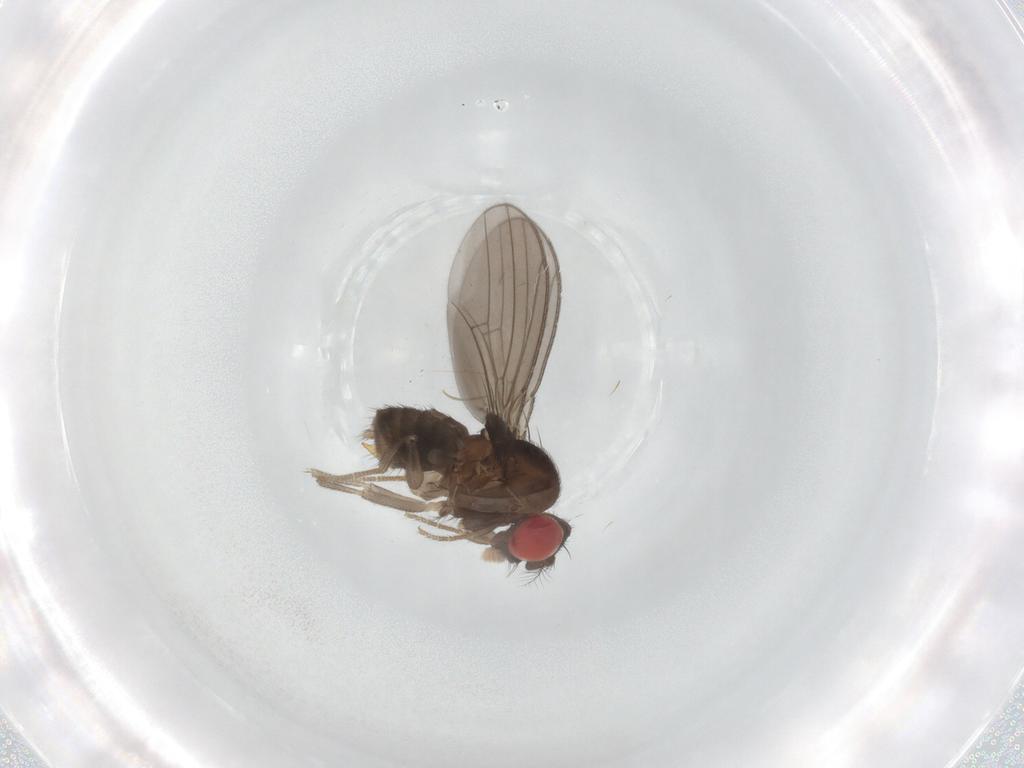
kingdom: Animalia
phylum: Arthropoda
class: Insecta
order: Diptera
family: Drosophilidae
